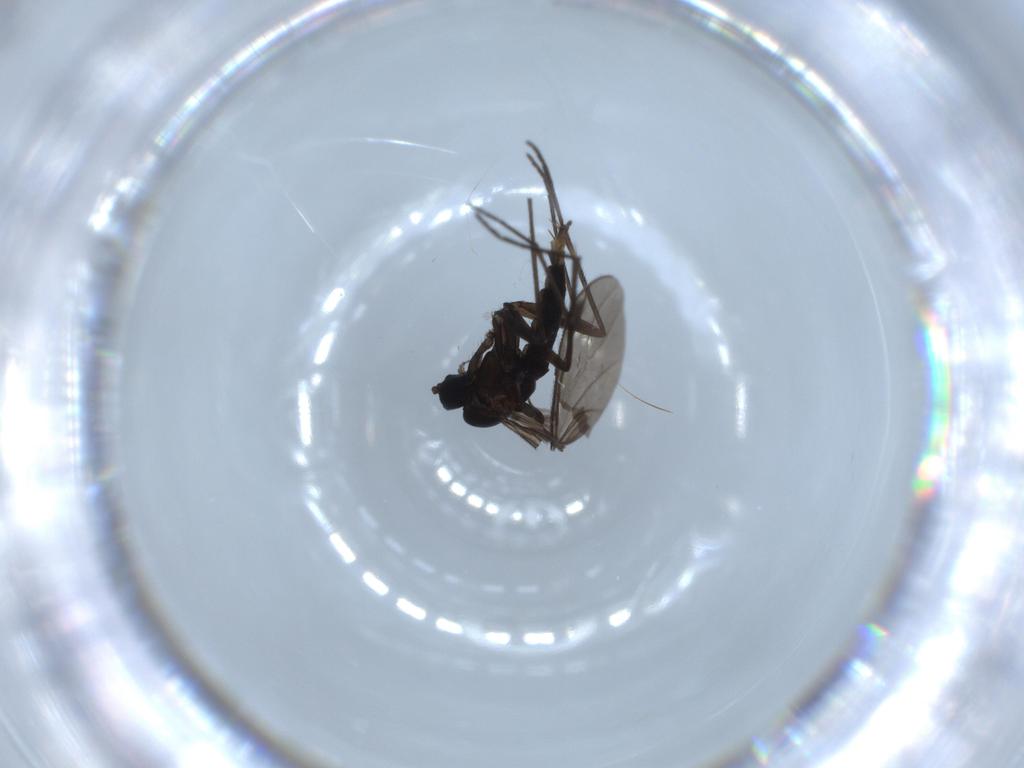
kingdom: Animalia
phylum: Arthropoda
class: Insecta
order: Diptera
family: Sciaridae
